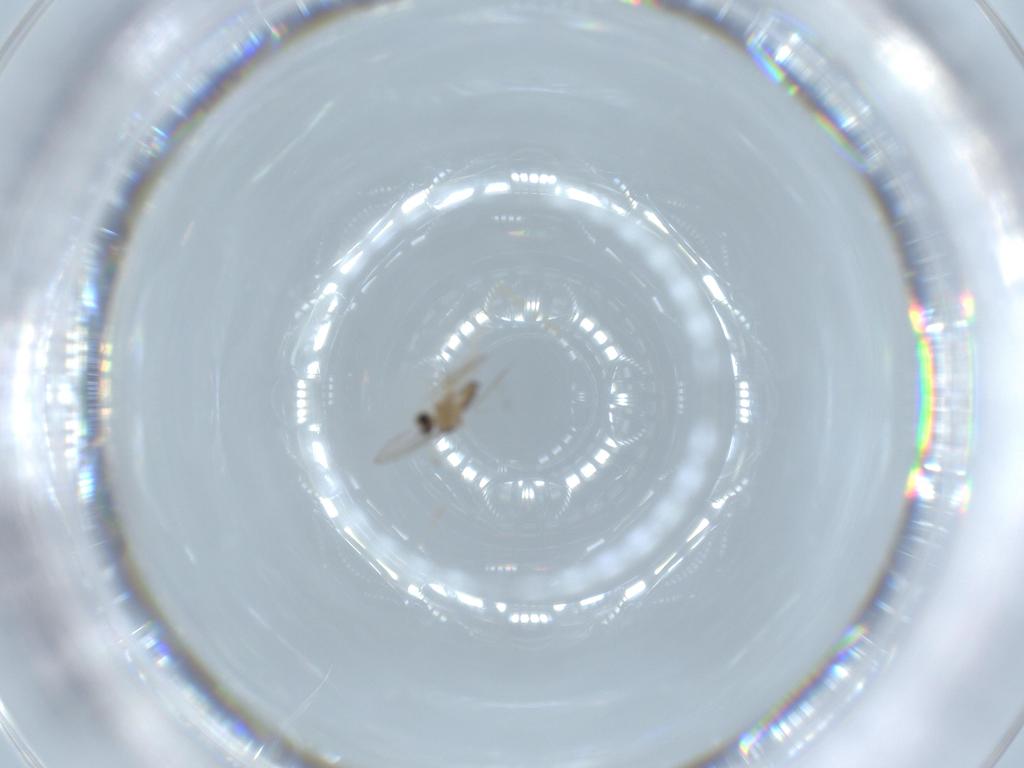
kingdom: Animalia
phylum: Arthropoda
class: Insecta
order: Diptera
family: Cecidomyiidae
